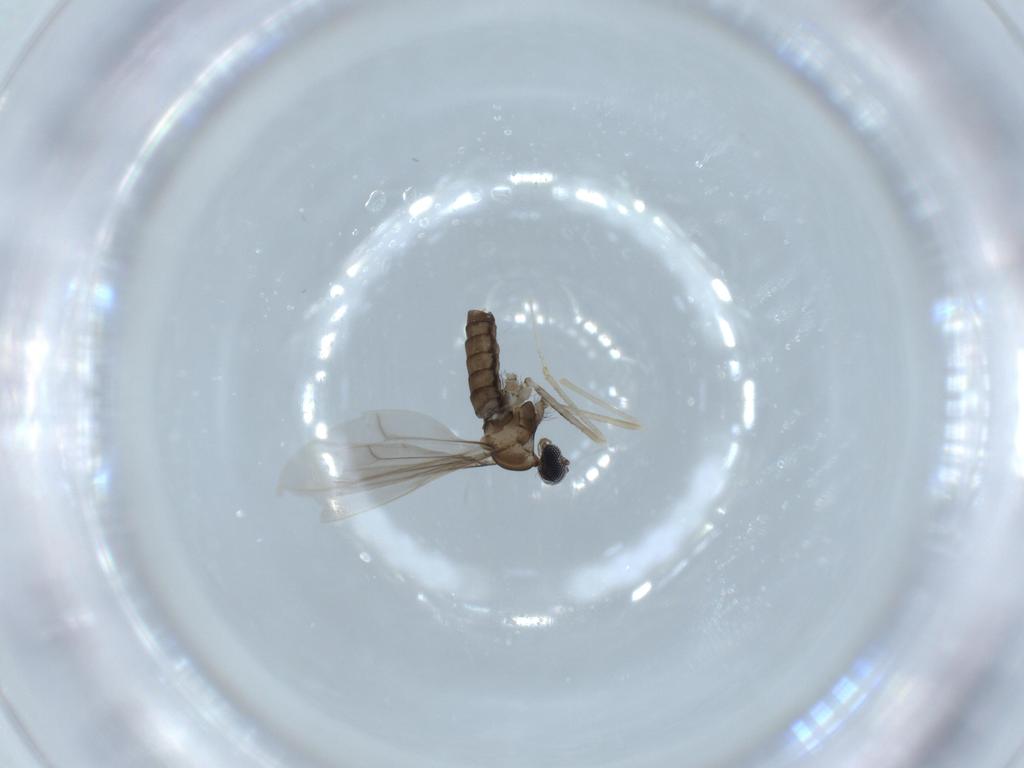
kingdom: Animalia
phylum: Arthropoda
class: Insecta
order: Diptera
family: Cecidomyiidae
